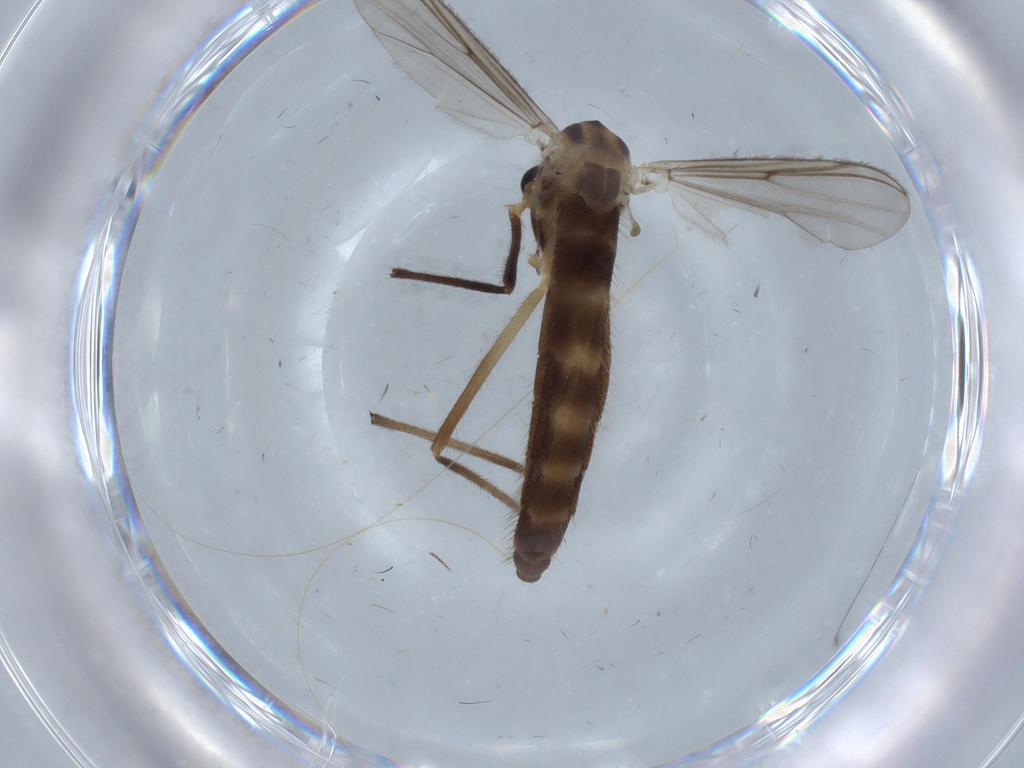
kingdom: Animalia
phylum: Arthropoda
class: Insecta
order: Diptera
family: Chironomidae
